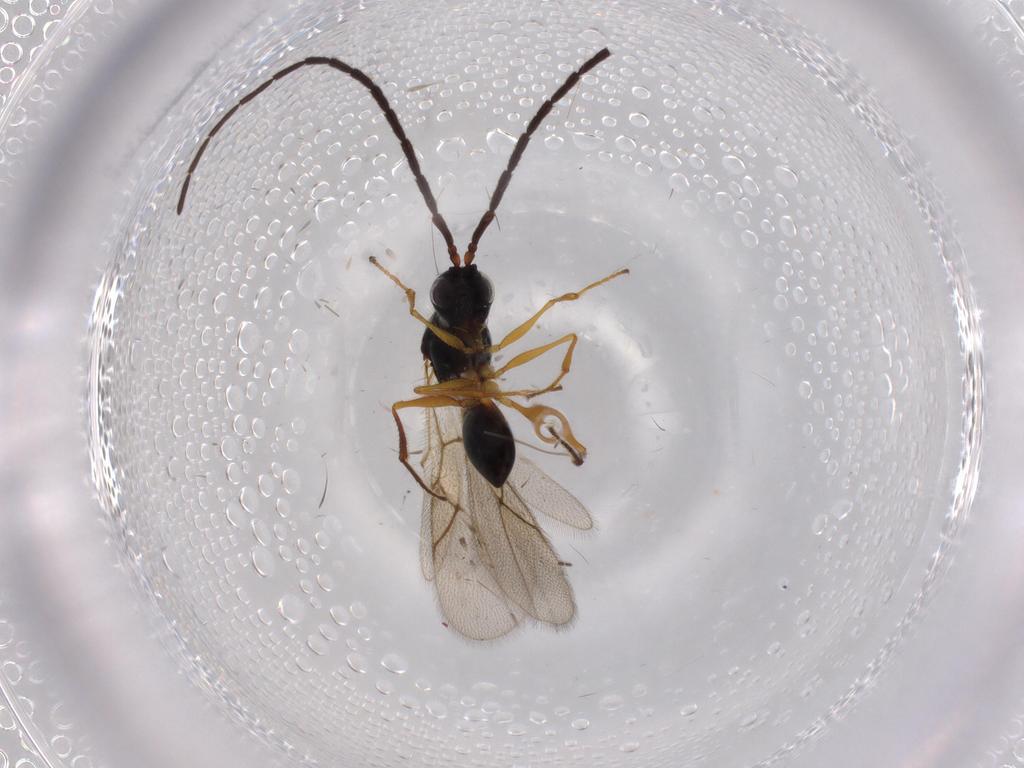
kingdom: Animalia
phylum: Arthropoda
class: Insecta
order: Hymenoptera
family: Figitidae
